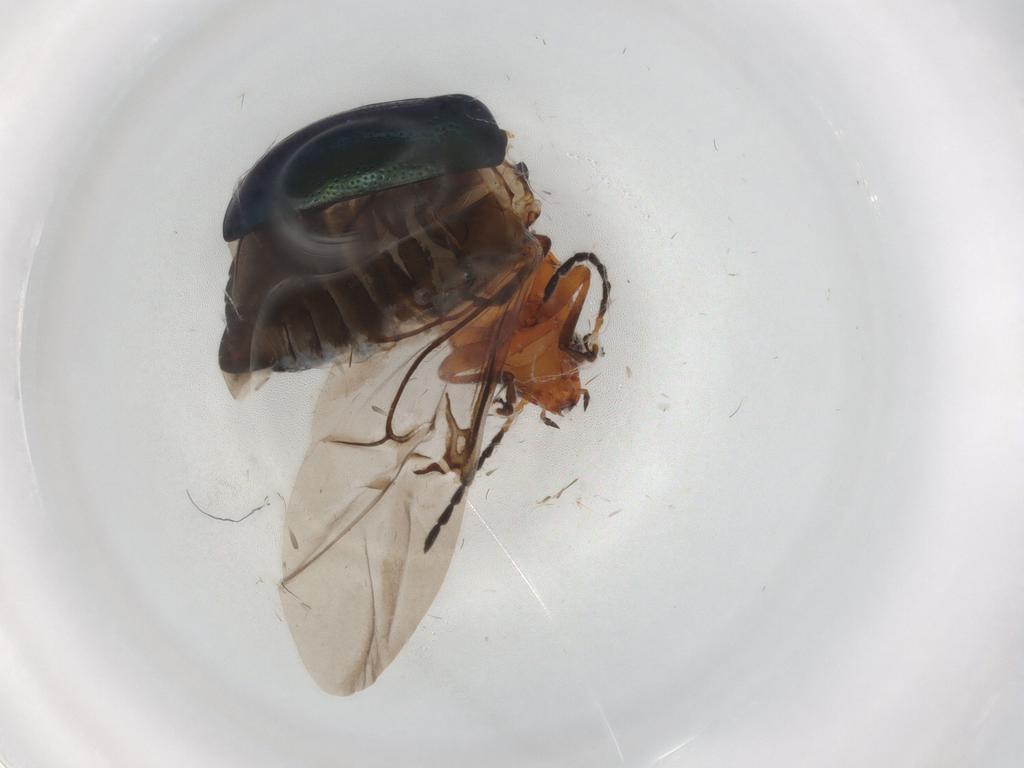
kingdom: Animalia
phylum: Arthropoda
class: Insecta
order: Coleoptera
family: Chrysomelidae
